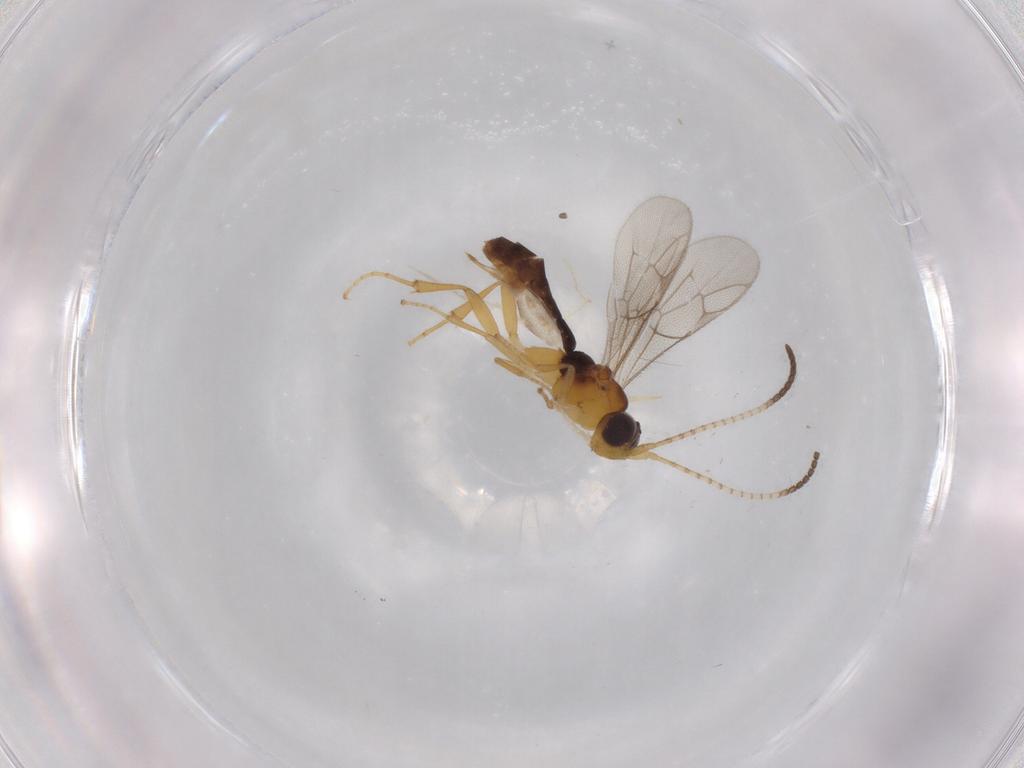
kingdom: Animalia
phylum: Arthropoda
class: Insecta
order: Hymenoptera
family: Ichneumonidae
